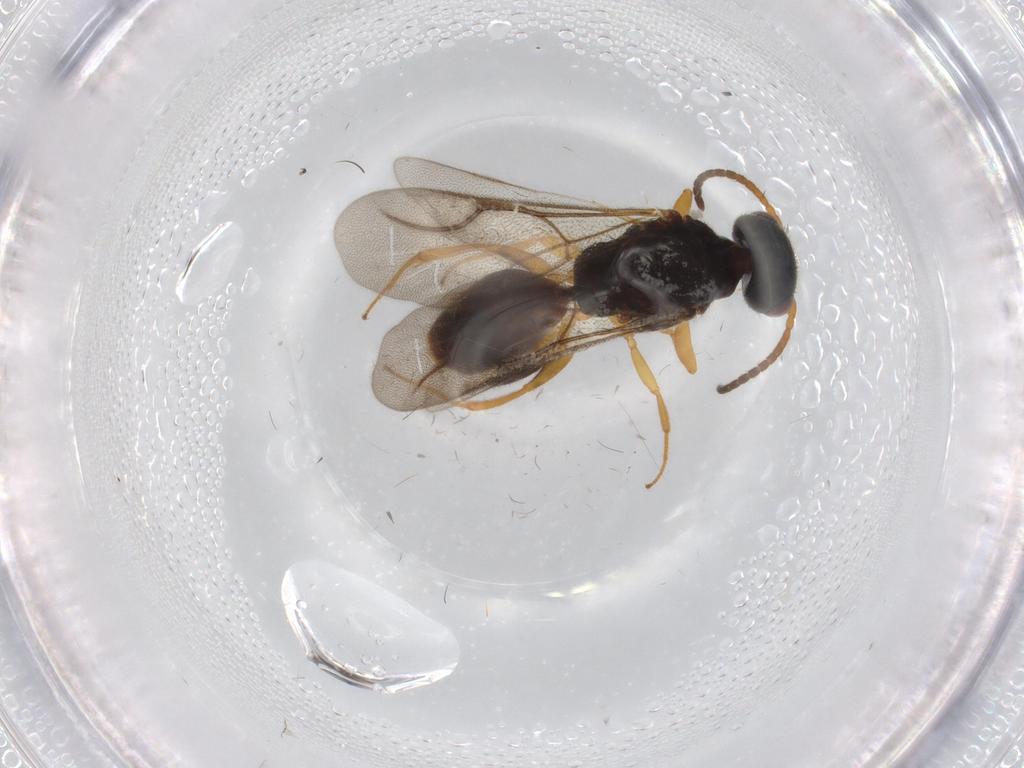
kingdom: Animalia
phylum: Arthropoda
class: Insecta
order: Hymenoptera
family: Bethylidae
